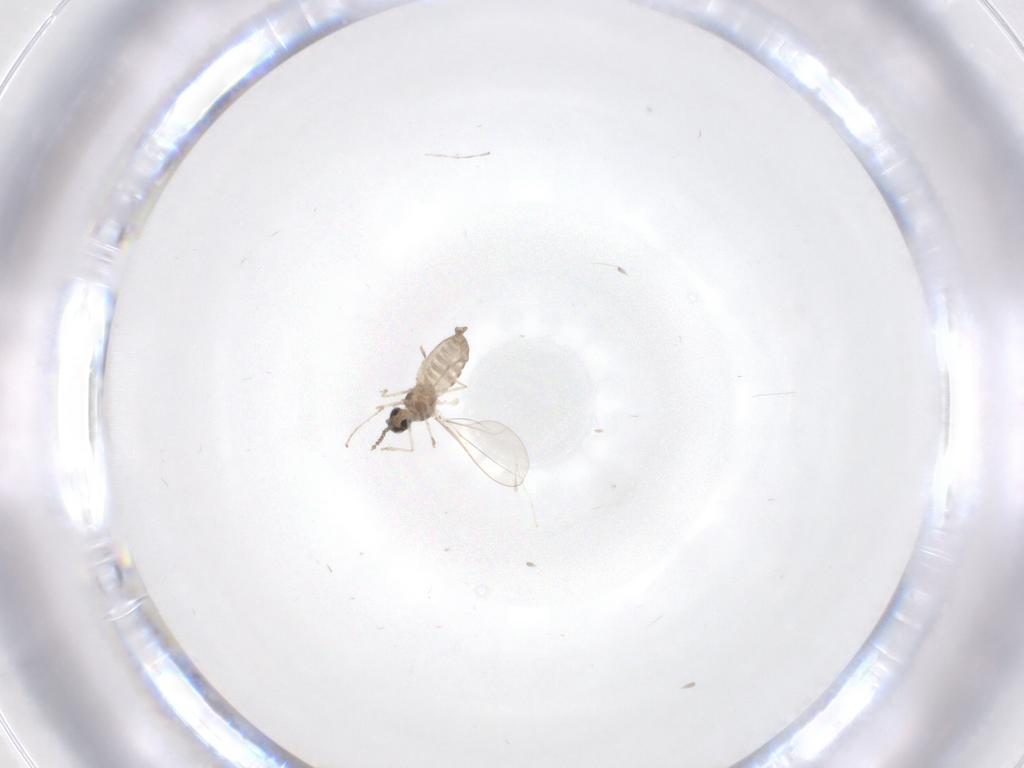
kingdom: Animalia
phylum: Arthropoda
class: Insecta
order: Diptera
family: Cecidomyiidae
